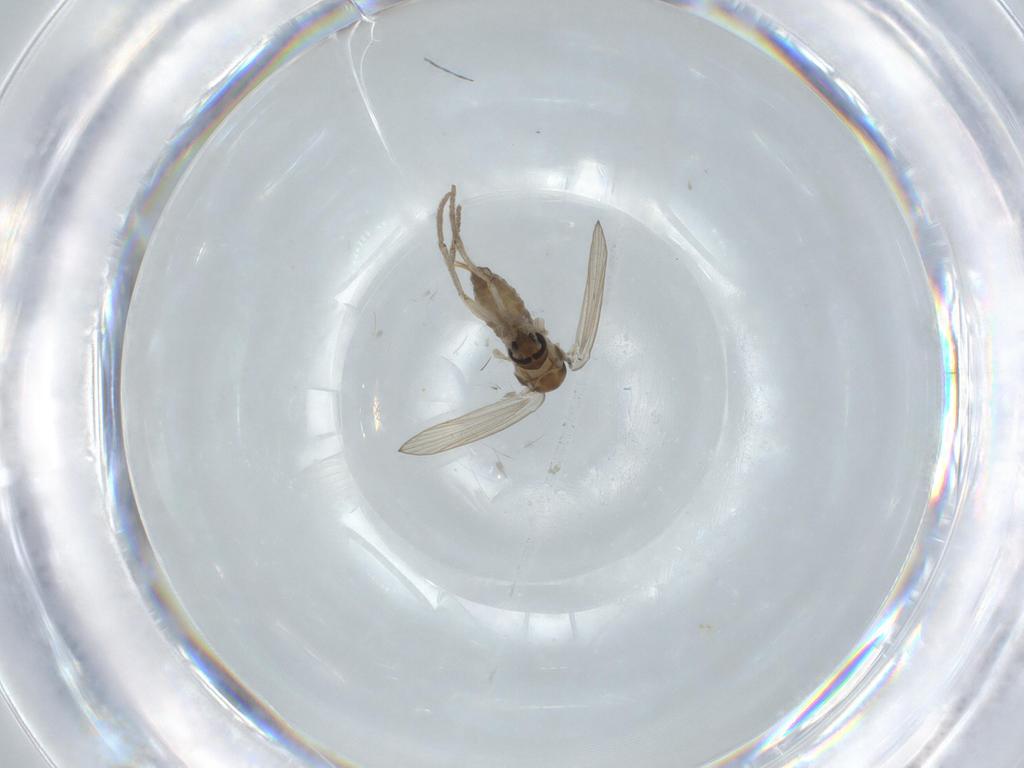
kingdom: Animalia
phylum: Arthropoda
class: Insecta
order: Diptera
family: Psychodidae
